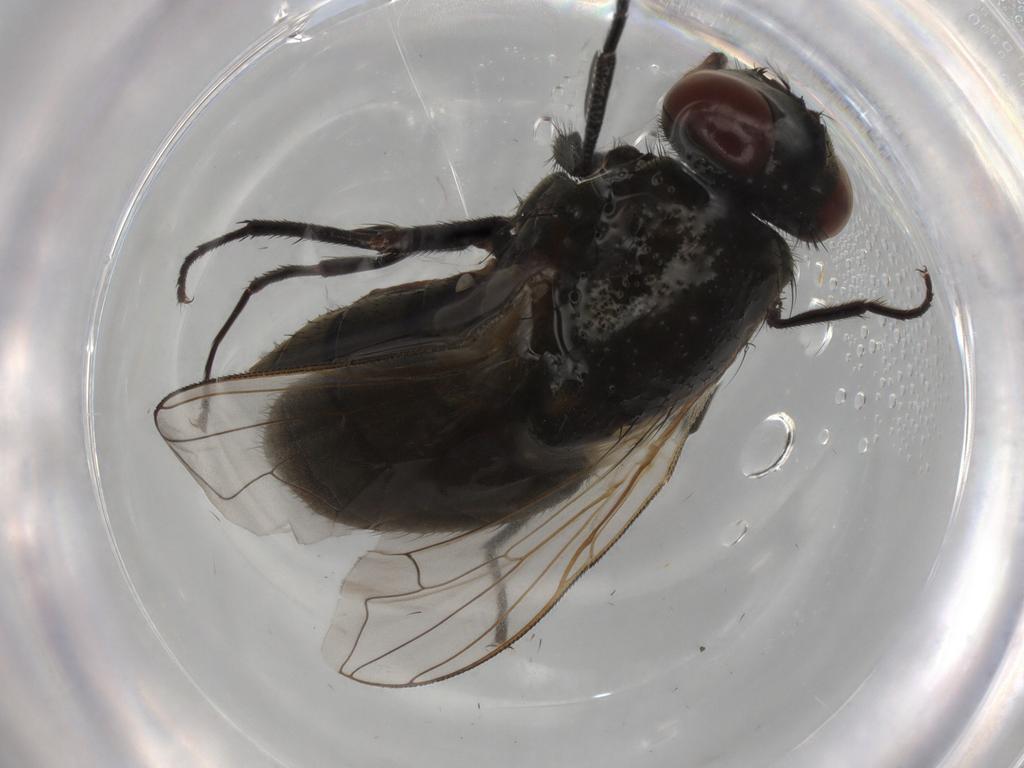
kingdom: Animalia
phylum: Arthropoda
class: Insecta
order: Diptera
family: Muscidae
